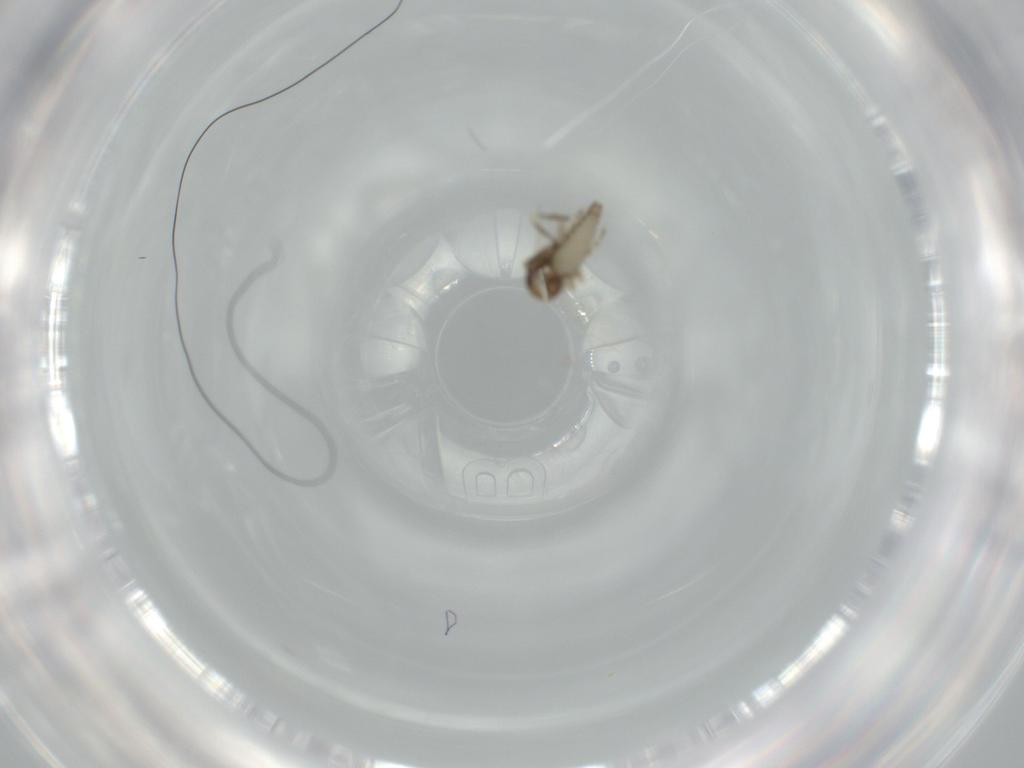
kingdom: Animalia
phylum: Arthropoda
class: Insecta
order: Diptera
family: Ceratopogonidae
